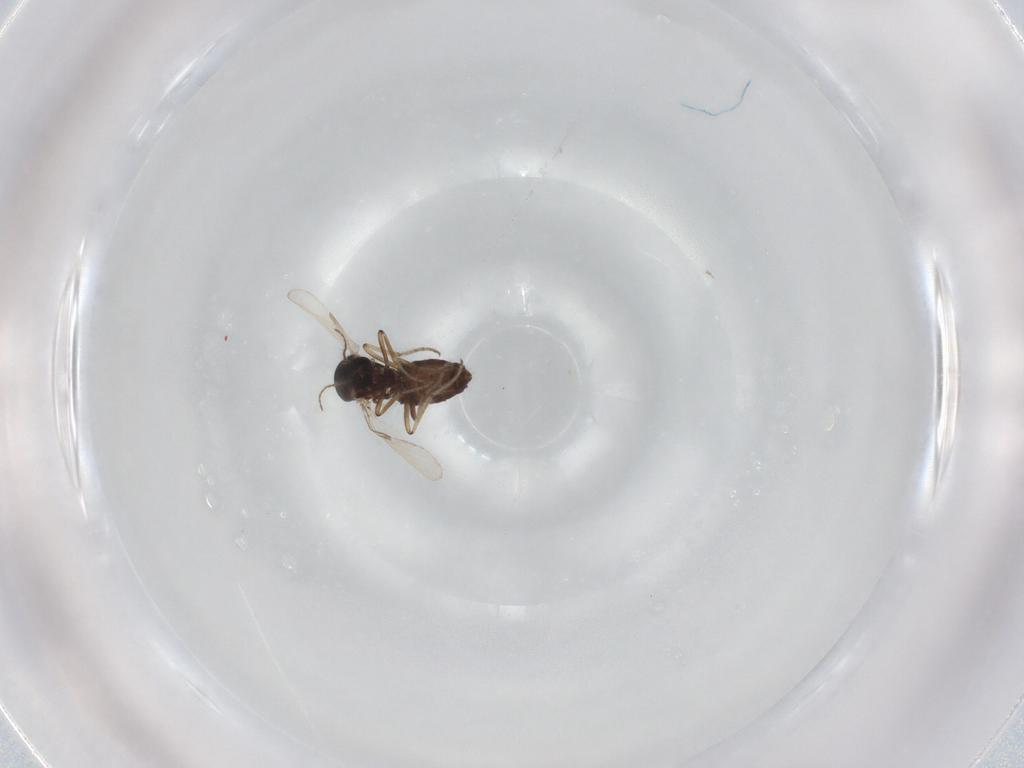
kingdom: Animalia
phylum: Arthropoda
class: Insecta
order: Diptera
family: Ceratopogonidae
